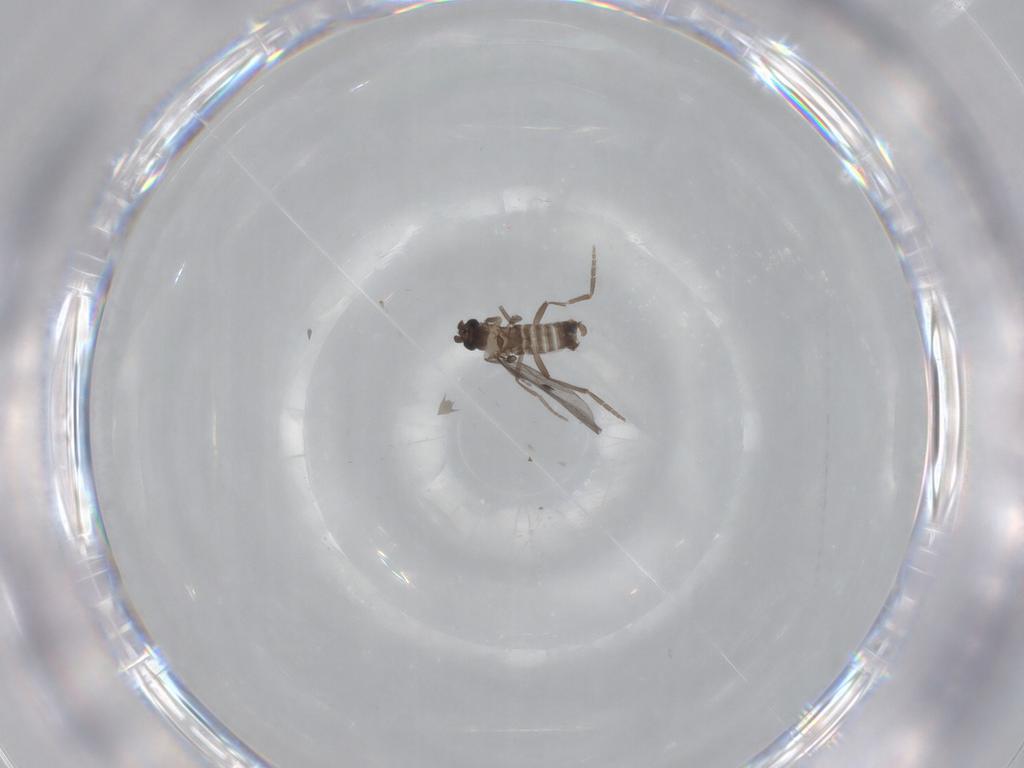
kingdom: Animalia
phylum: Arthropoda
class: Insecta
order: Diptera
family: Phoridae
